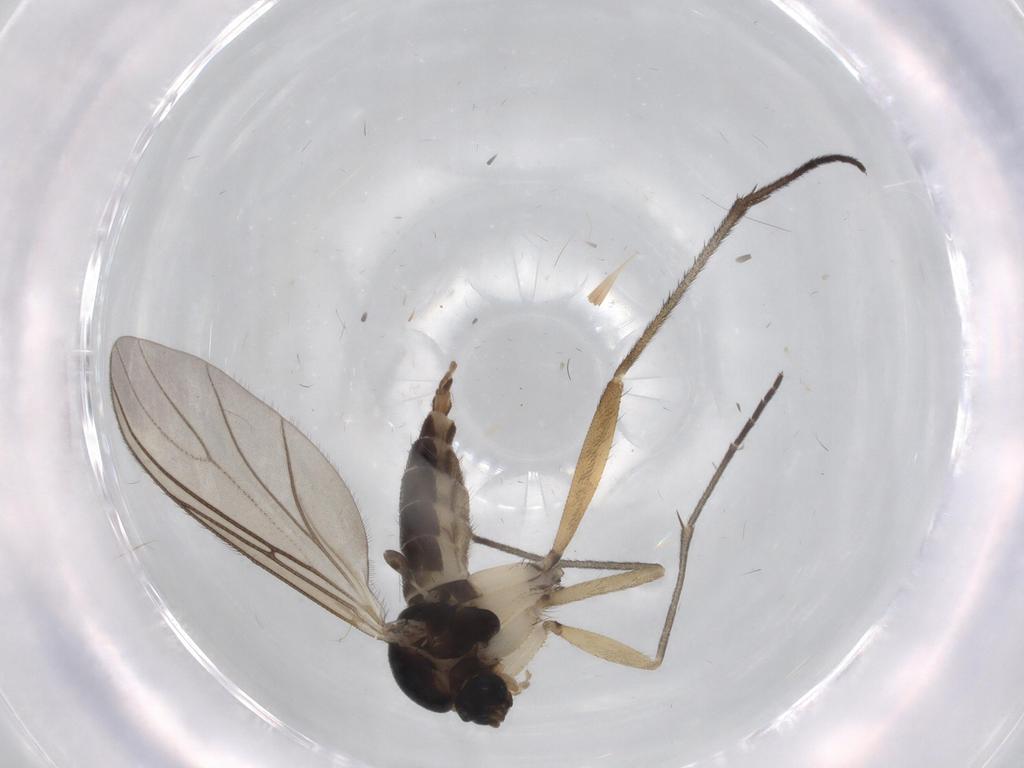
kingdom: Animalia
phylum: Arthropoda
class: Insecta
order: Diptera
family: Sciaridae
